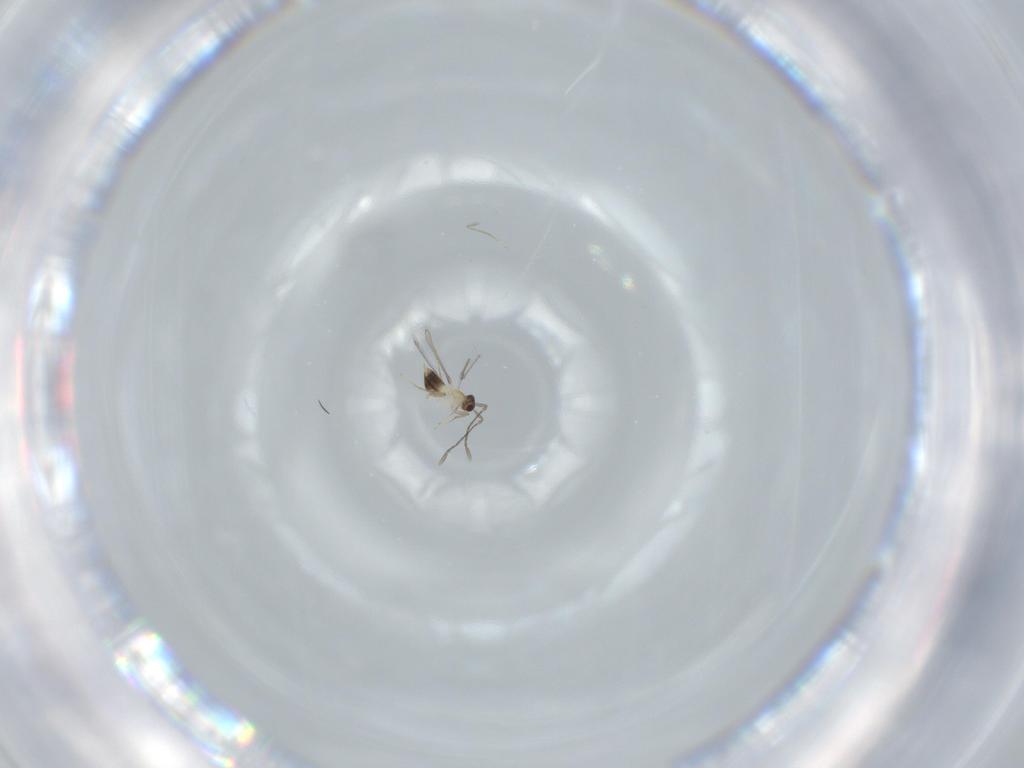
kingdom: Animalia
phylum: Arthropoda
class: Insecta
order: Hymenoptera
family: Mymaridae
